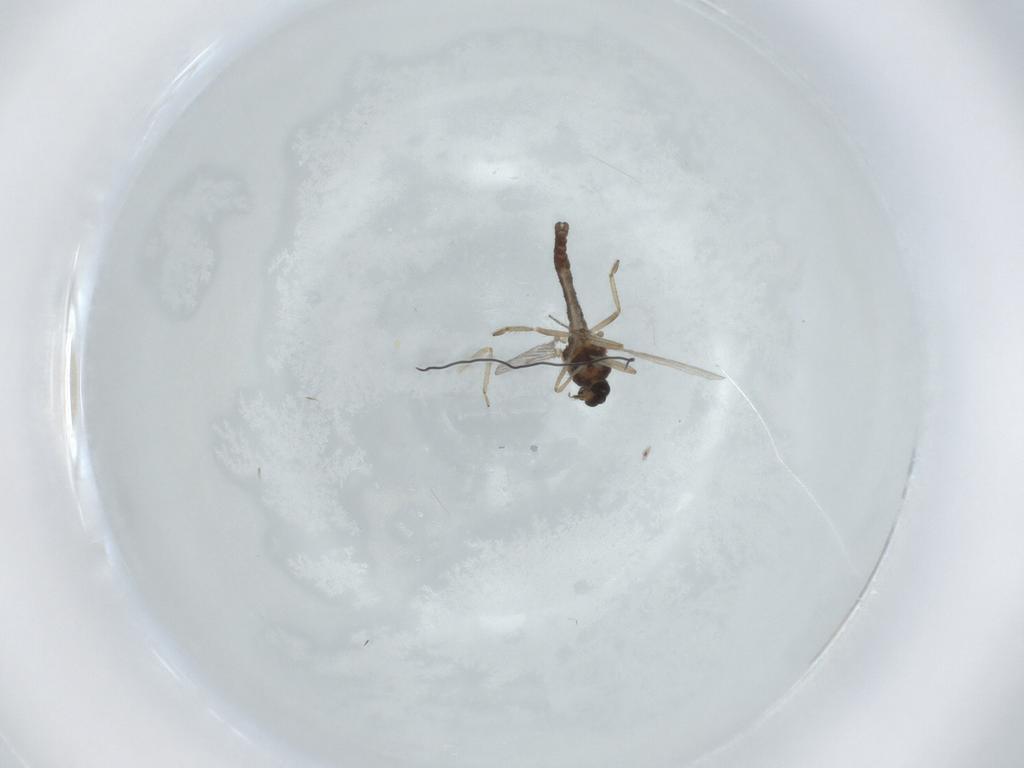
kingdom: Animalia
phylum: Arthropoda
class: Insecta
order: Diptera
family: Ceratopogonidae
